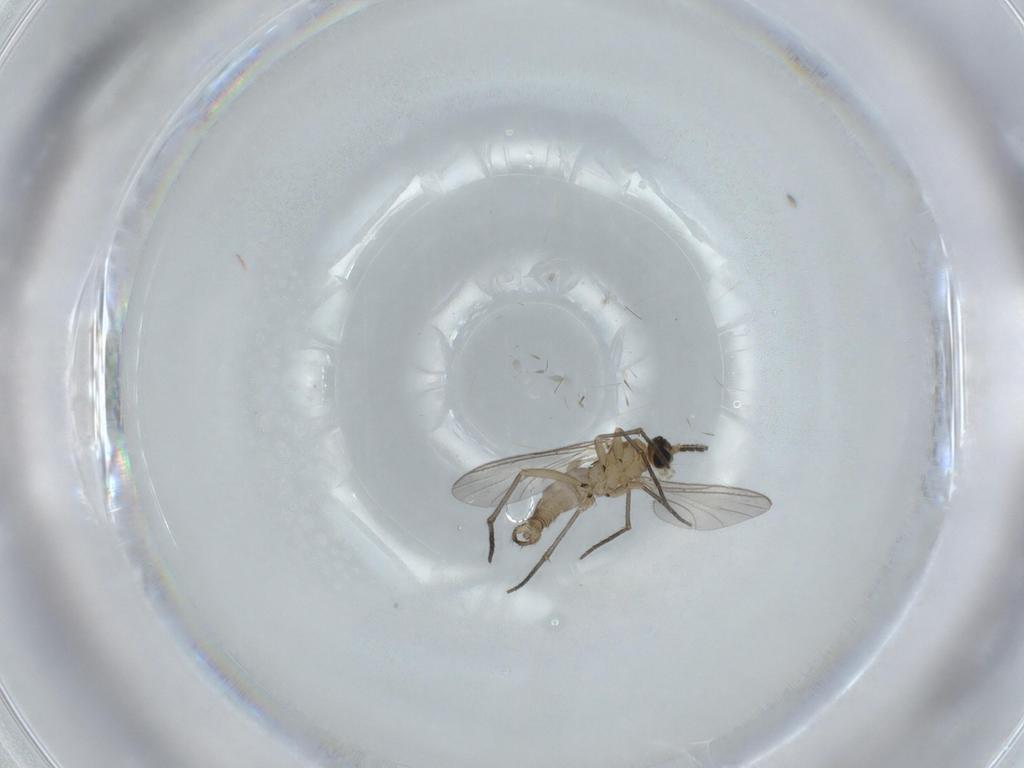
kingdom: Animalia
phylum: Arthropoda
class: Insecta
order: Diptera
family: Sciaridae
